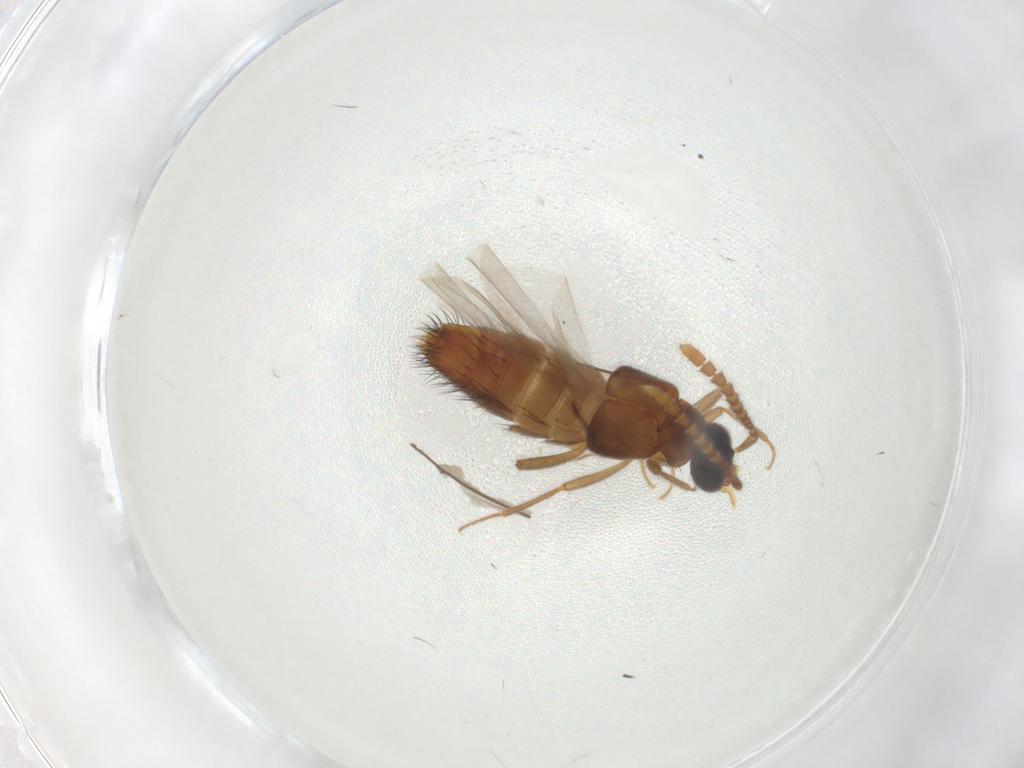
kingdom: Animalia
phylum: Arthropoda
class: Insecta
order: Coleoptera
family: Staphylinidae
